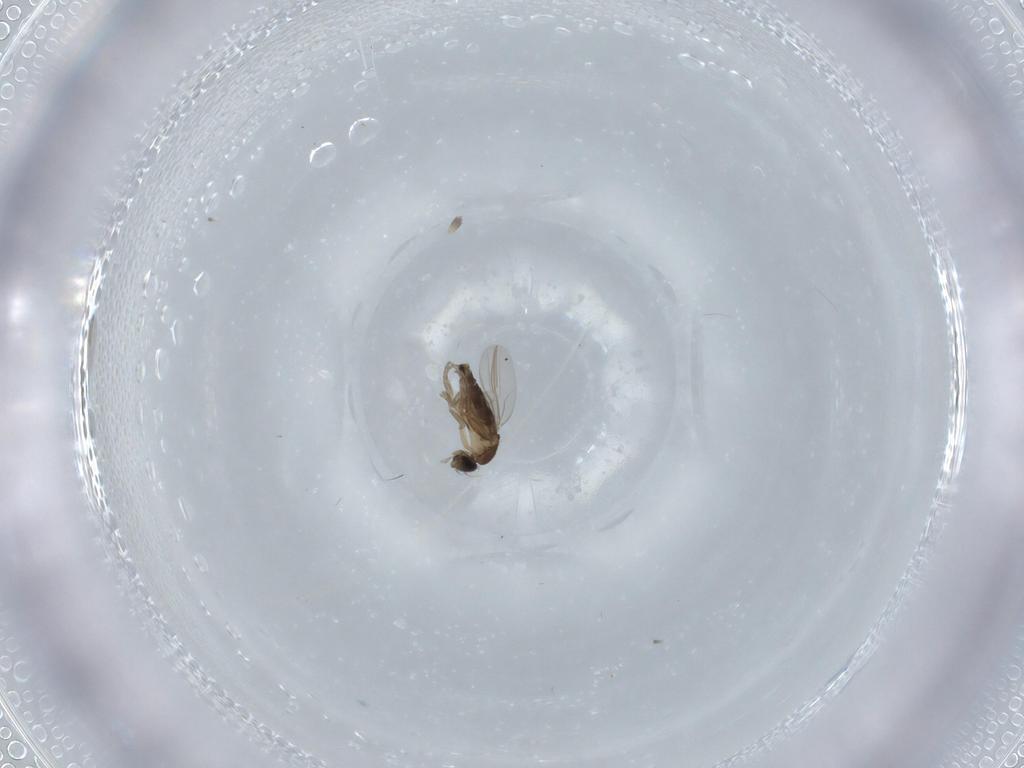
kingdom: Animalia
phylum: Arthropoda
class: Insecta
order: Diptera
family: Phoridae
